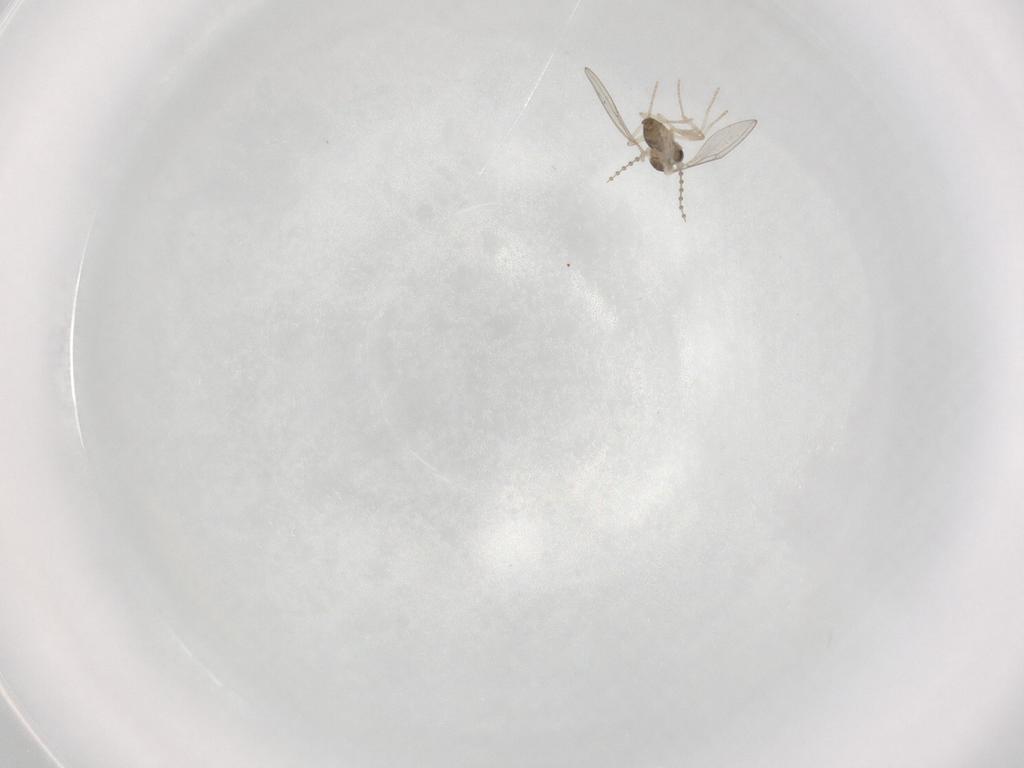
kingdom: Animalia
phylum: Arthropoda
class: Insecta
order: Diptera
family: Cecidomyiidae
